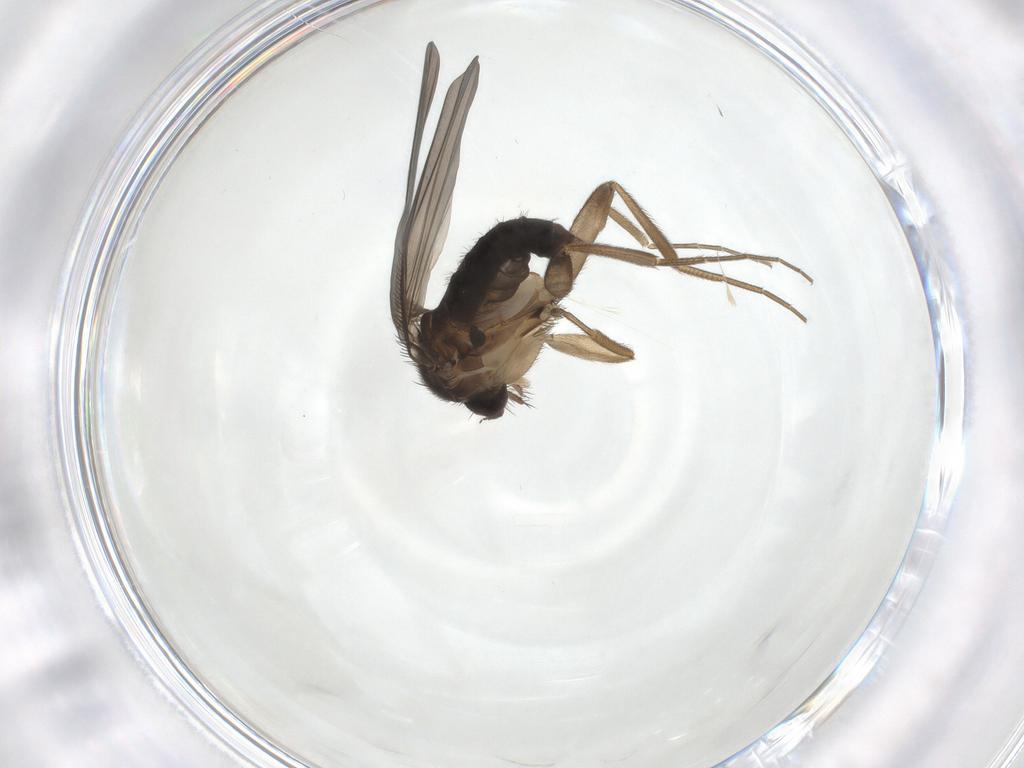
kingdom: Animalia
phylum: Arthropoda
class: Insecta
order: Diptera
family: Phoridae
